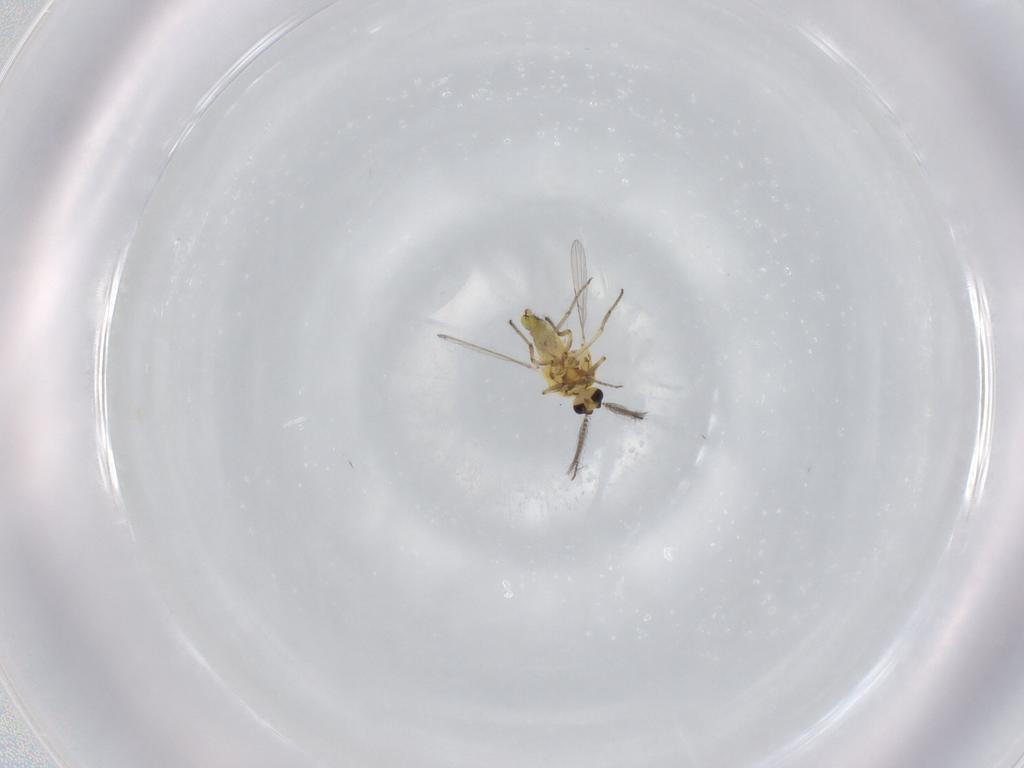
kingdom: Animalia
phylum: Arthropoda
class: Insecta
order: Diptera
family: Ceratopogonidae
